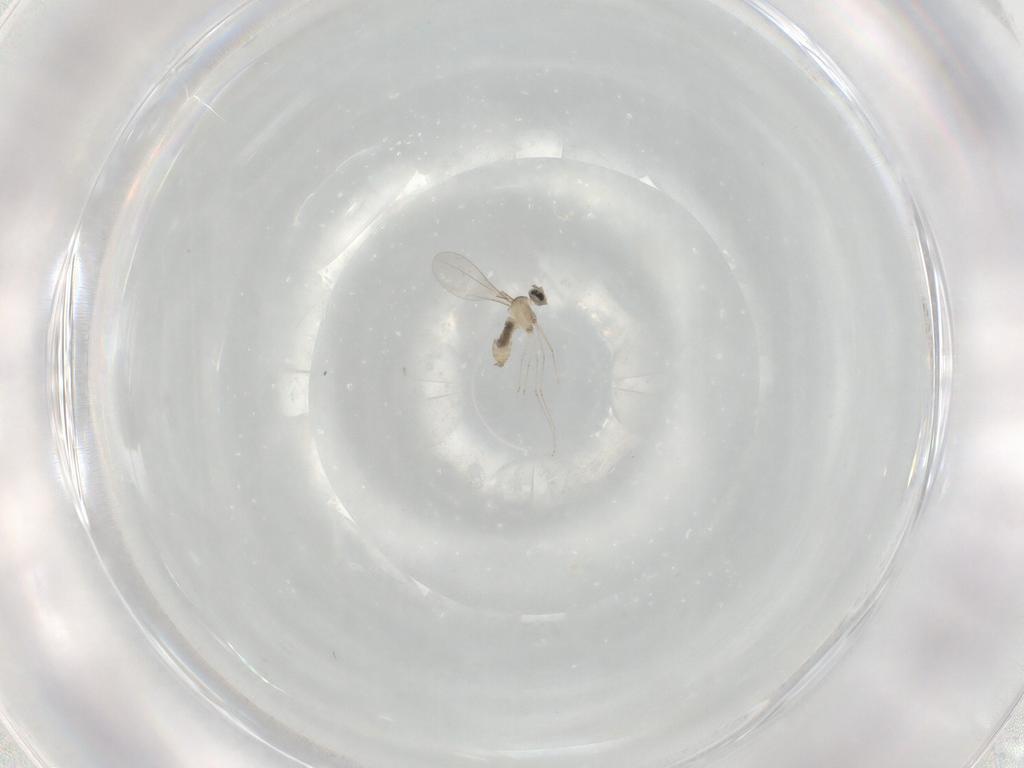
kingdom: Animalia
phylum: Arthropoda
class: Insecta
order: Diptera
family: Cecidomyiidae
